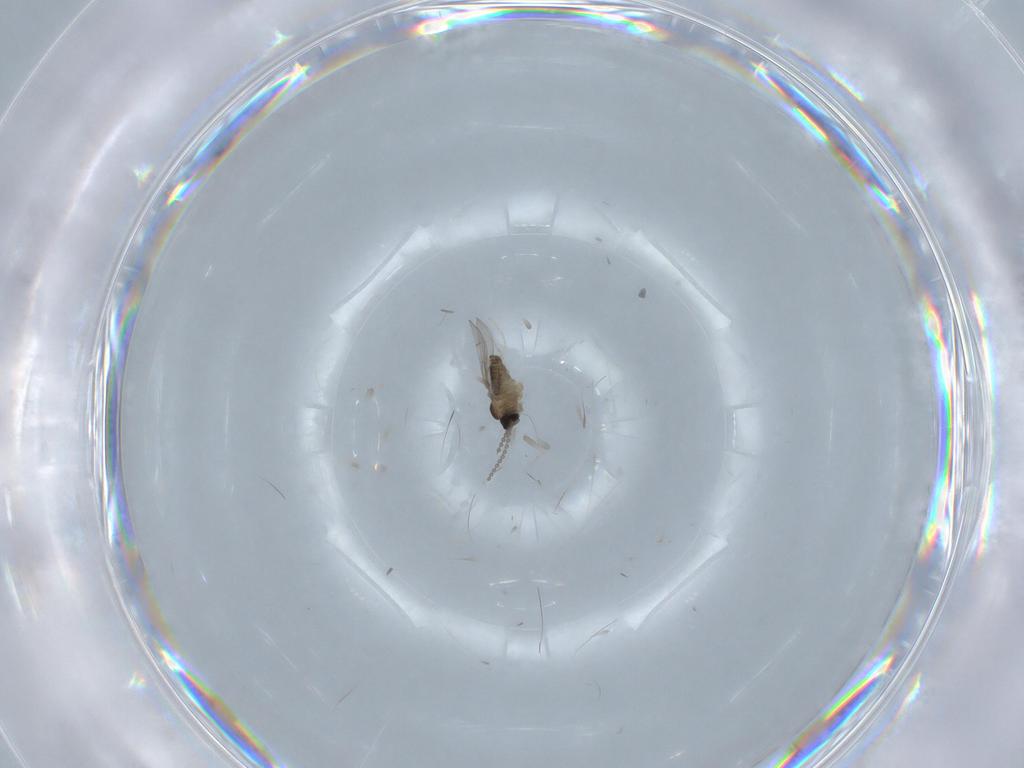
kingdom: Animalia
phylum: Arthropoda
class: Insecta
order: Diptera
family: Cecidomyiidae
